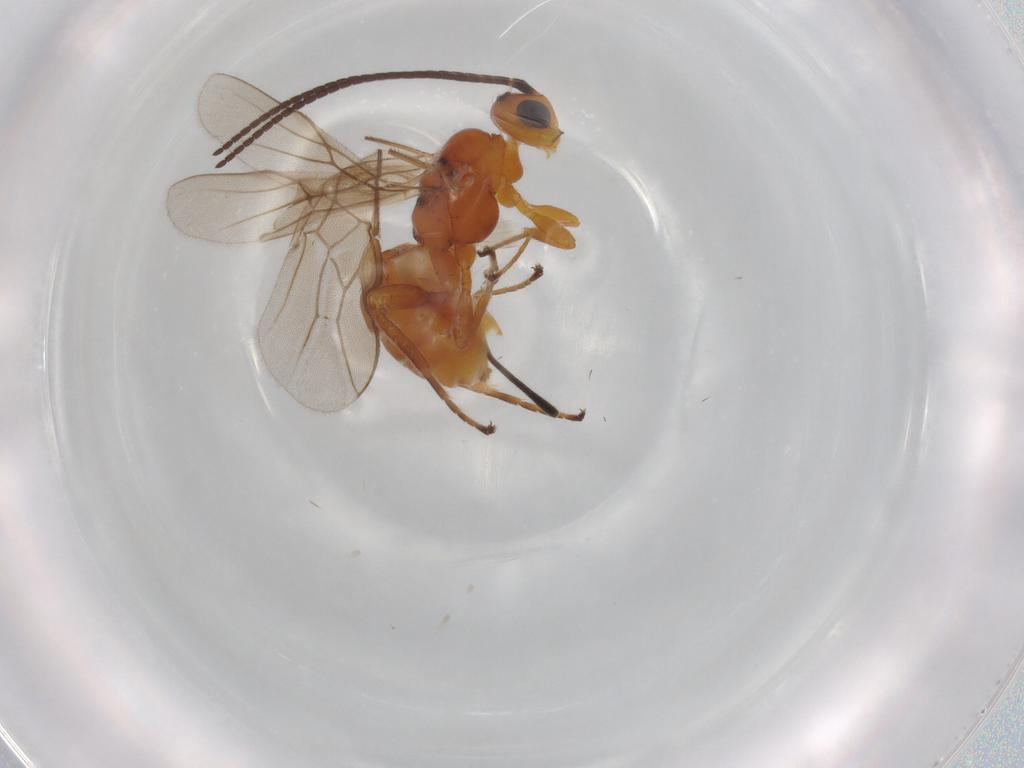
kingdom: Animalia
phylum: Arthropoda
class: Insecta
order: Hymenoptera
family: Braconidae
